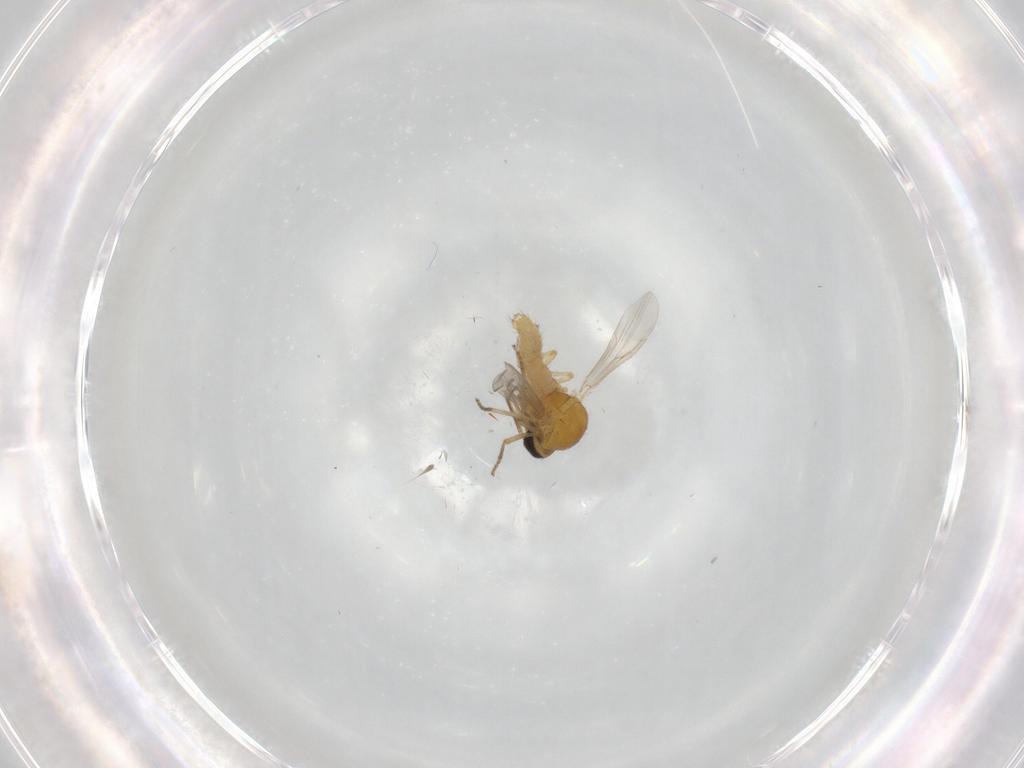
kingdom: Animalia
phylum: Arthropoda
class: Insecta
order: Diptera
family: Ceratopogonidae
